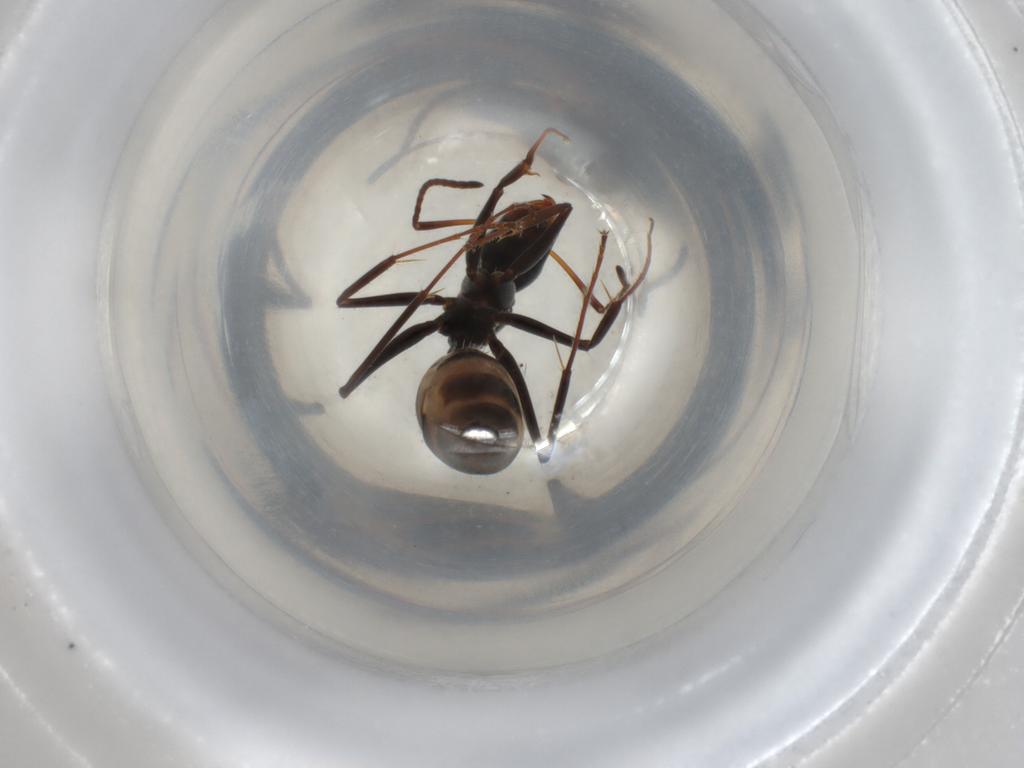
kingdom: Animalia
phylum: Arthropoda
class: Insecta
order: Hymenoptera
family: Formicidae
